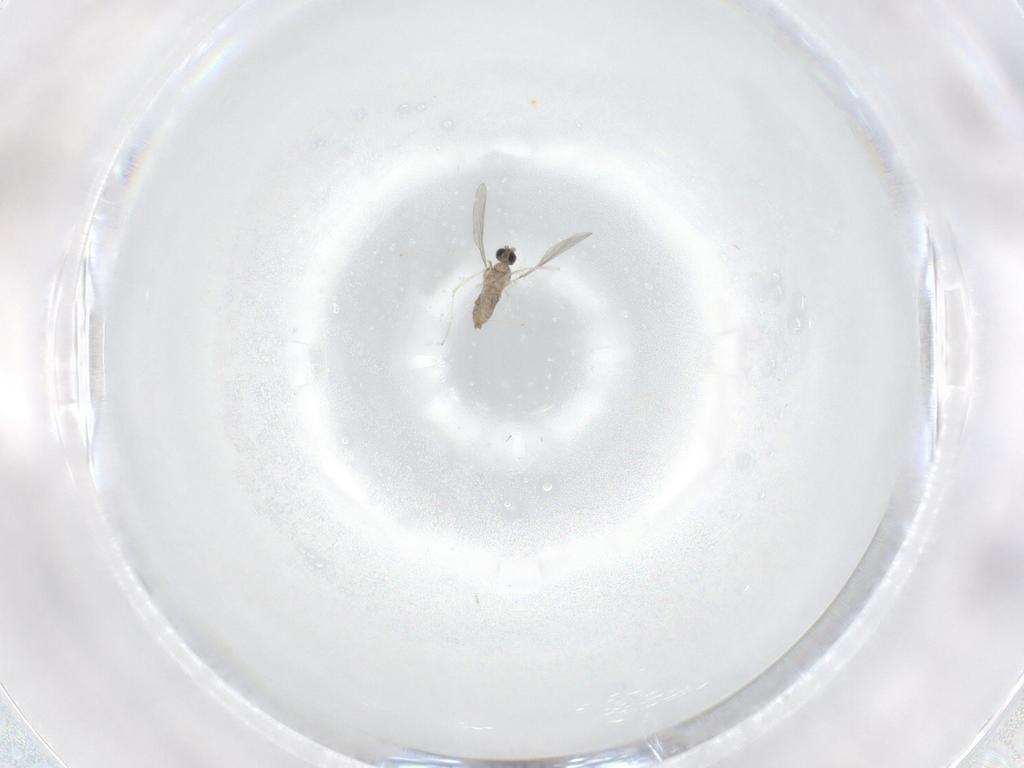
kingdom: Animalia
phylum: Arthropoda
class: Insecta
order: Diptera
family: Cecidomyiidae
